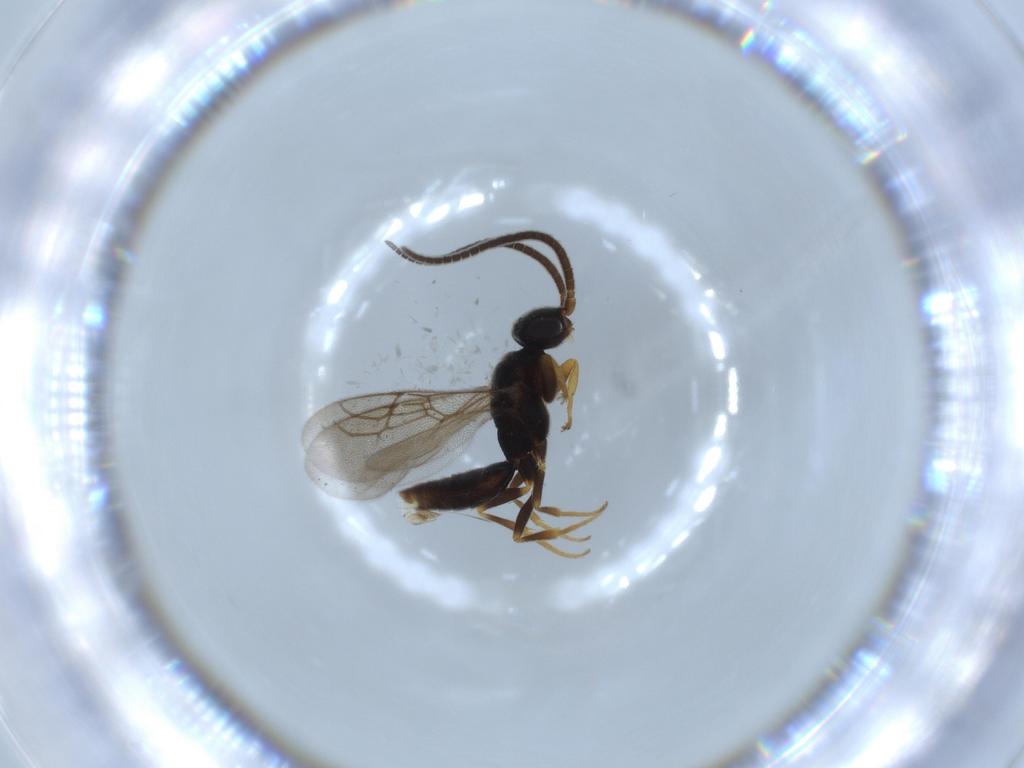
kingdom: Animalia
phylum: Arthropoda
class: Insecta
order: Hymenoptera
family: Sclerogibbidae
